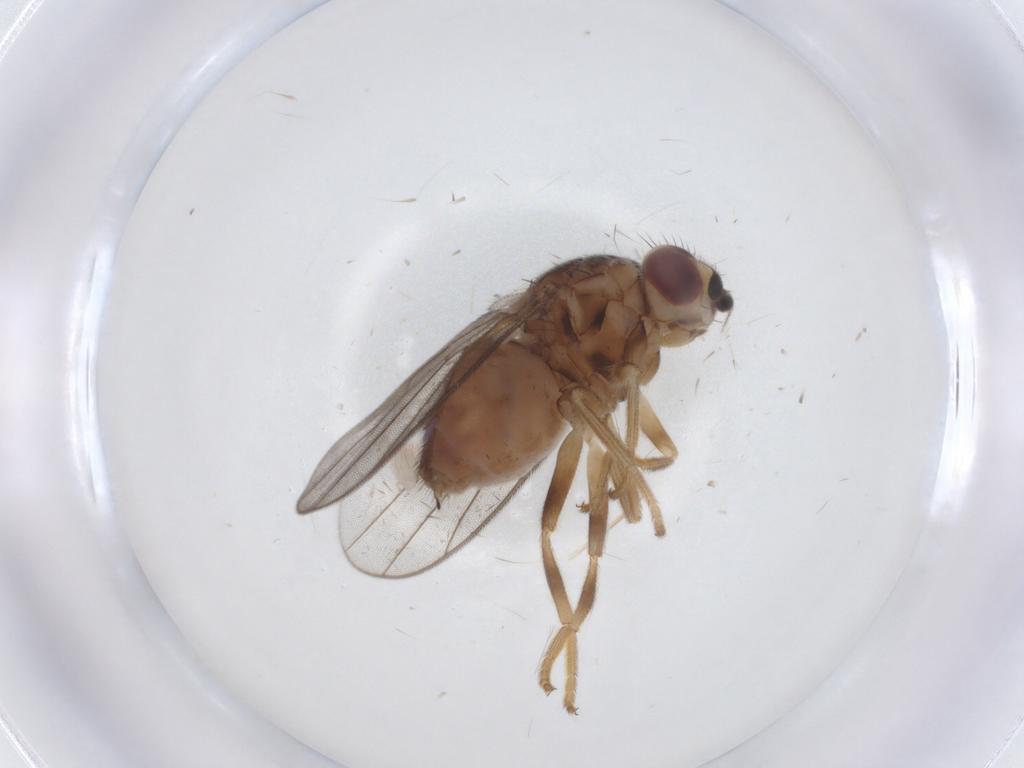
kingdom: Animalia
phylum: Arthropoda
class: Insecta
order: Diptera
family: Chloropidae
